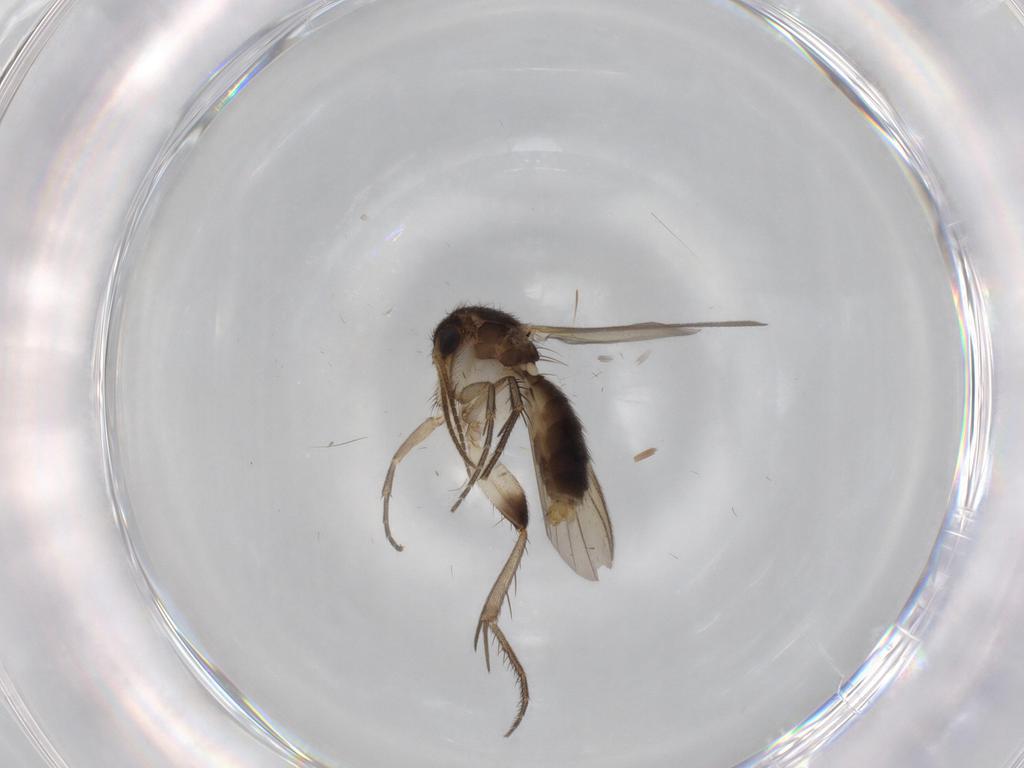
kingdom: Animalia
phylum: Arthropoda
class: Insecta
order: Diptera
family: Mycetophilidae
